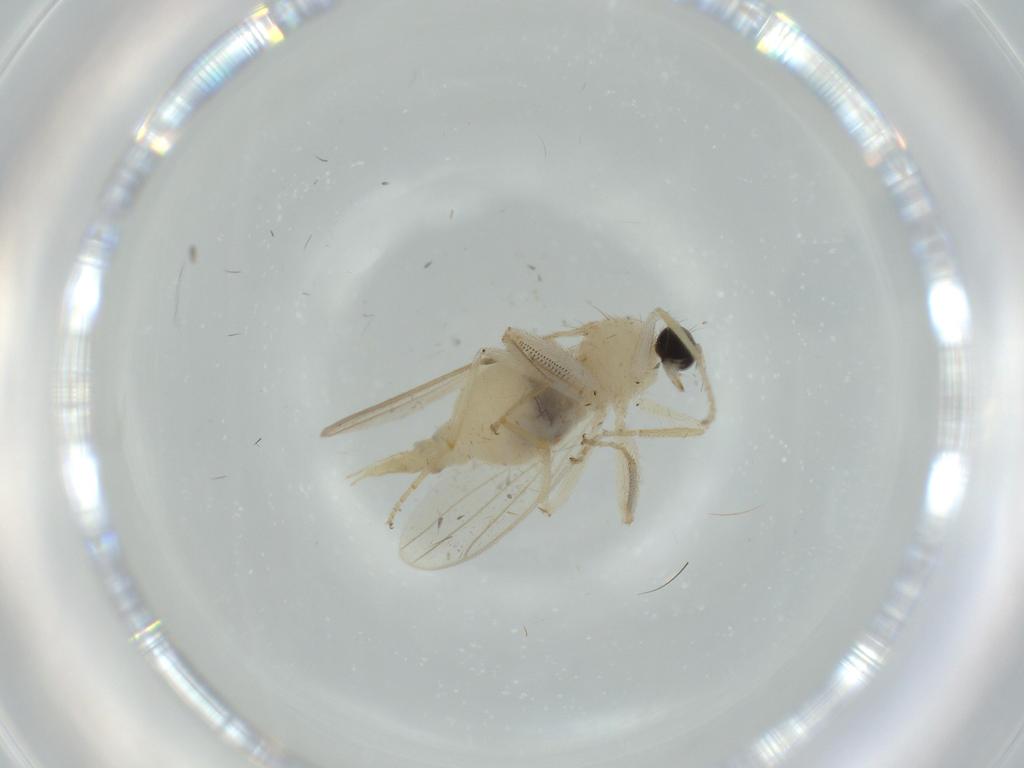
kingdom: Animalia
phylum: Arthropoda
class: Insecta
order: Diptera
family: Hybotidae
